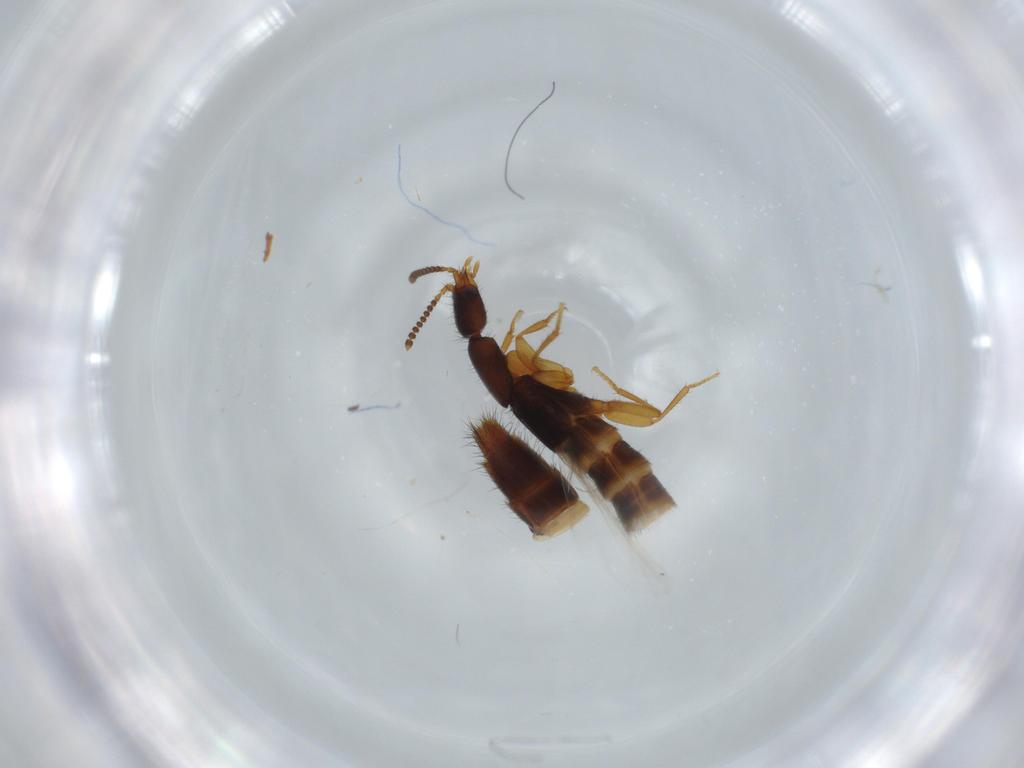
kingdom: Animalia
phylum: Arthropoda
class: Insecta
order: Coleoptera
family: Staphylinidae
